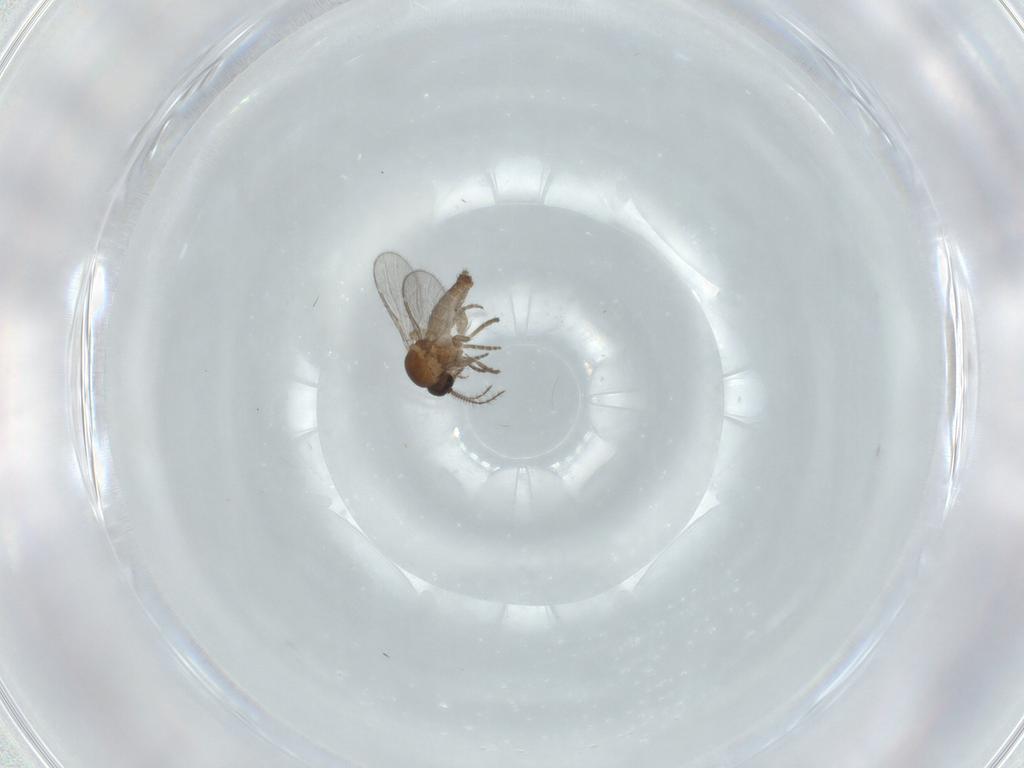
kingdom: Animalia
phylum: Arthropoda
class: Insecta
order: Diptera
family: Ceratopogonidae
